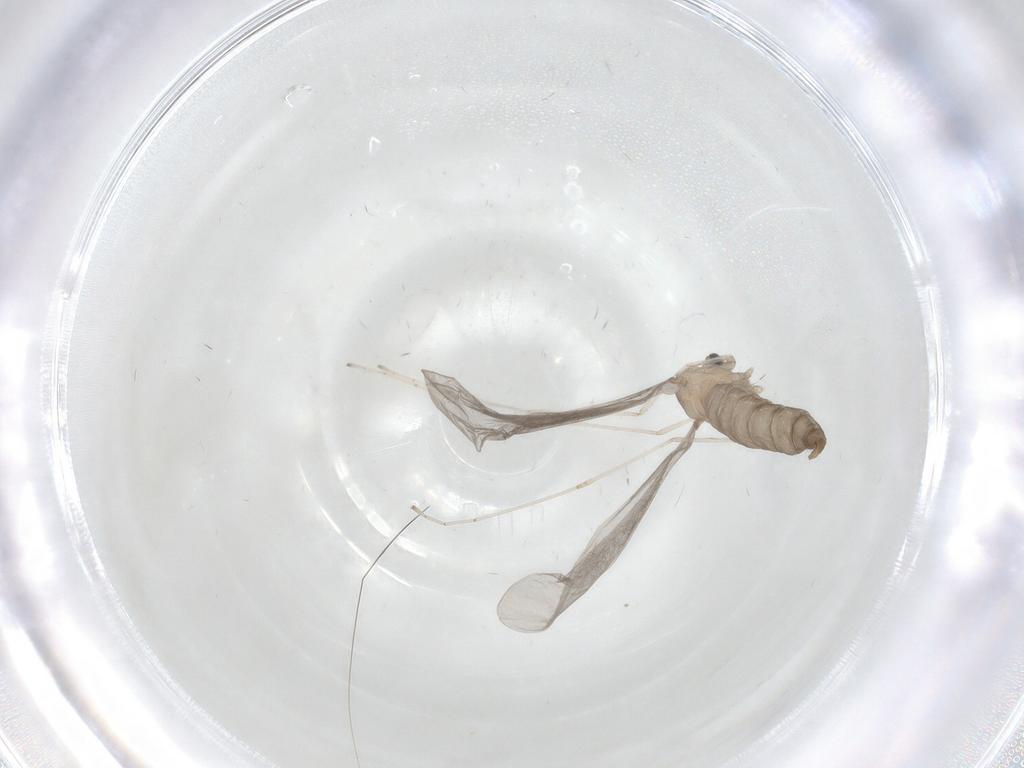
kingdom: Animalia
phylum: Arthropoda
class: Insecta
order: Diptera
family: Cecidomyiidae
